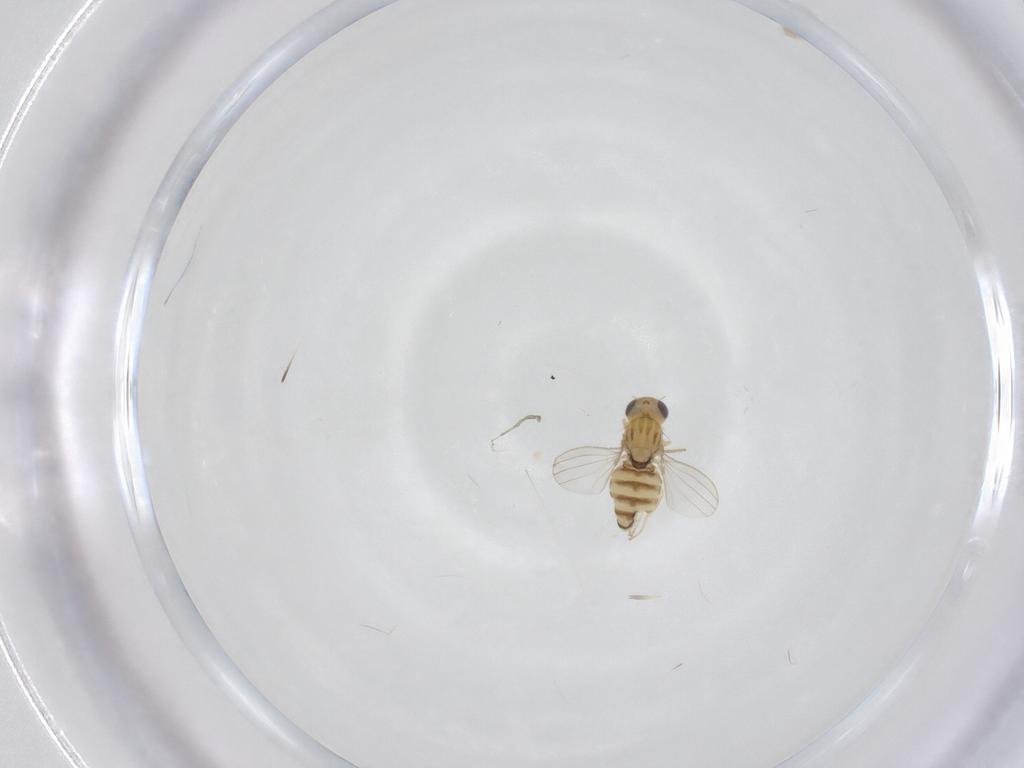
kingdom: Animalia
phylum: Arthropoda
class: Insecta
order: Diptera
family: Chyromyidae
